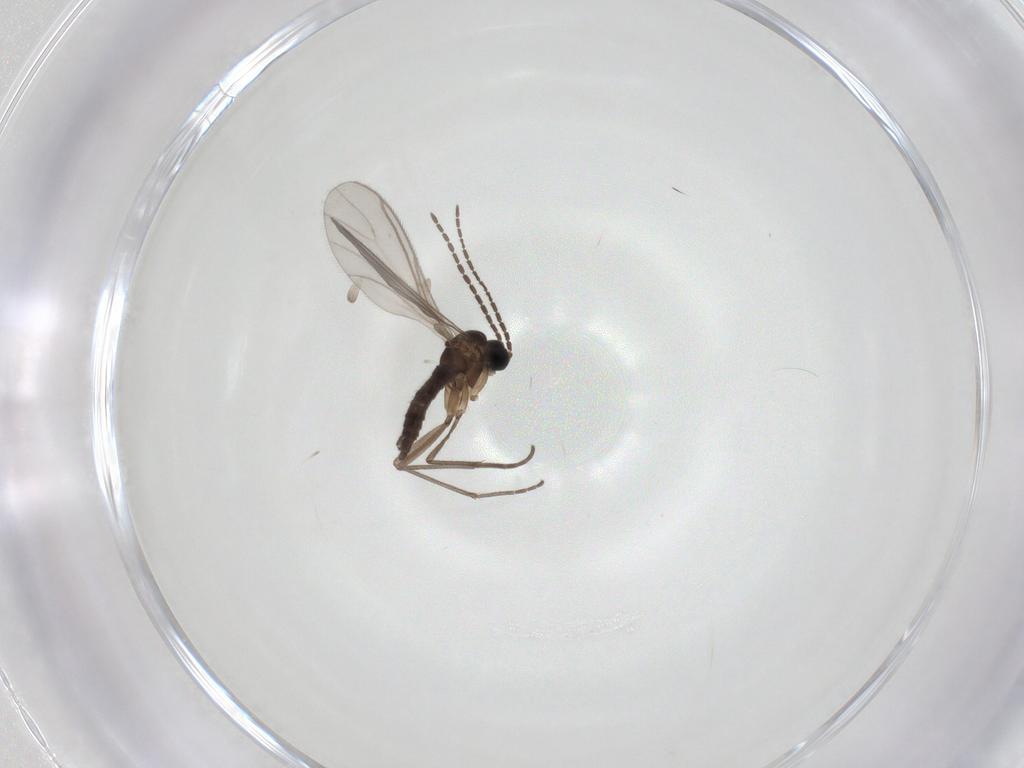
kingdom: Animalia
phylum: Arthropoda
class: Insecta
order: Diptera
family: Sciaridae
